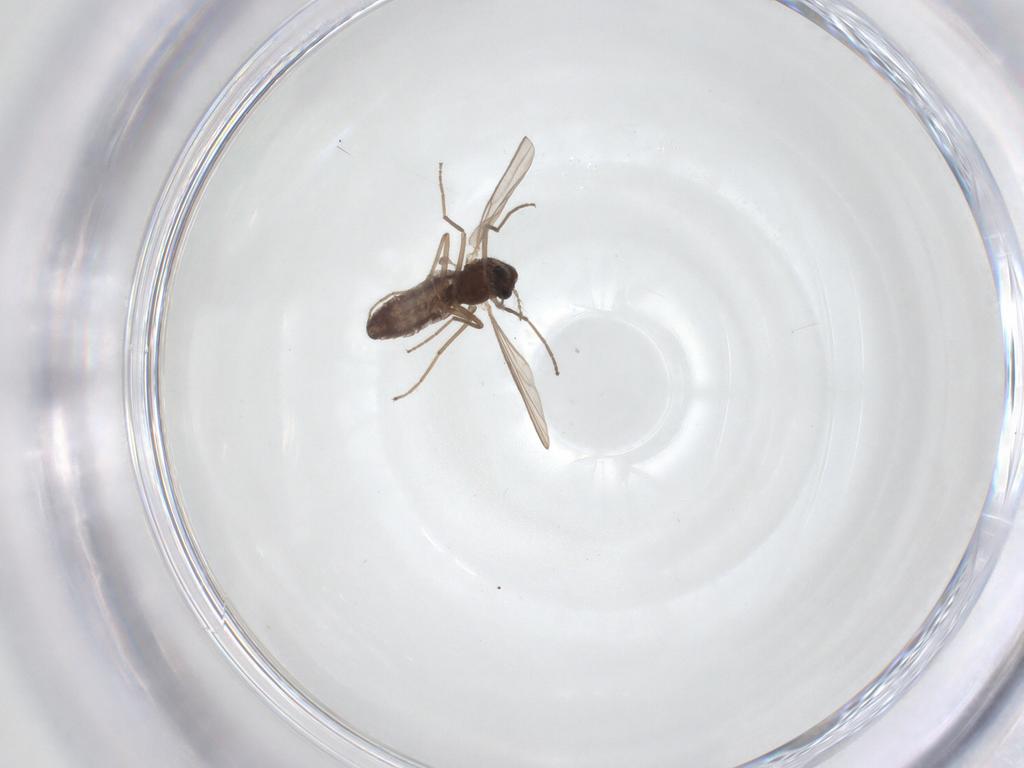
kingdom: Animalia
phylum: Arthropoda
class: Insecta
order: Diptera
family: Chironomidae
